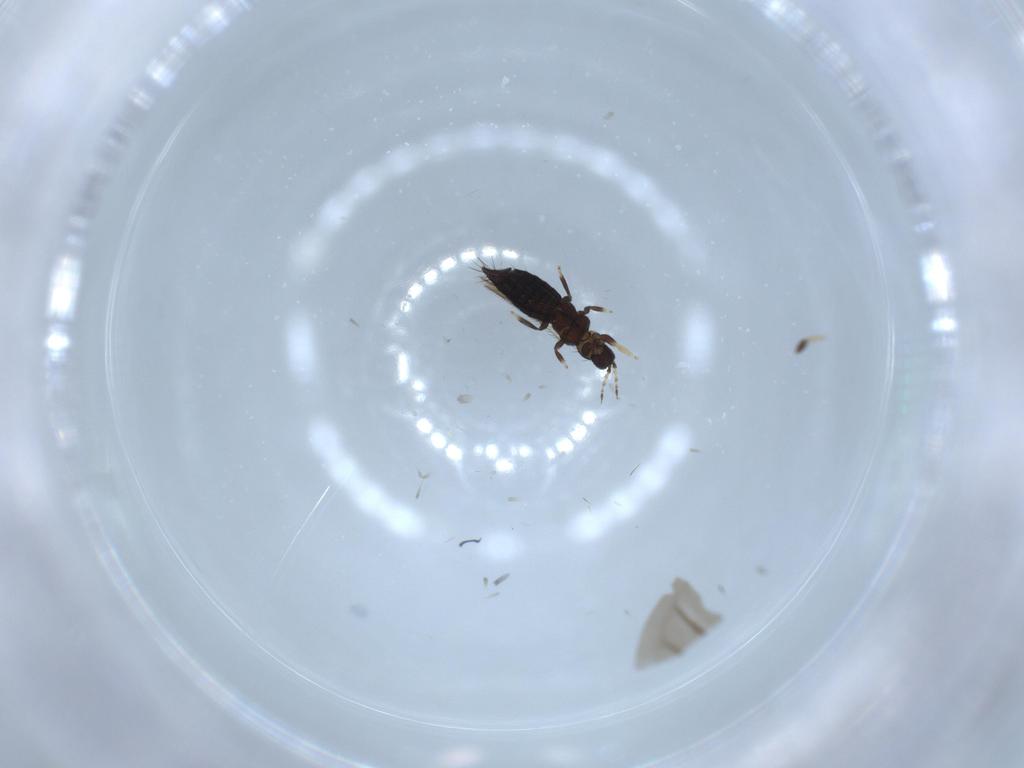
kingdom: Animalia
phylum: Arthropoda
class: Insecta
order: Thysanoptera
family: Thripidae
